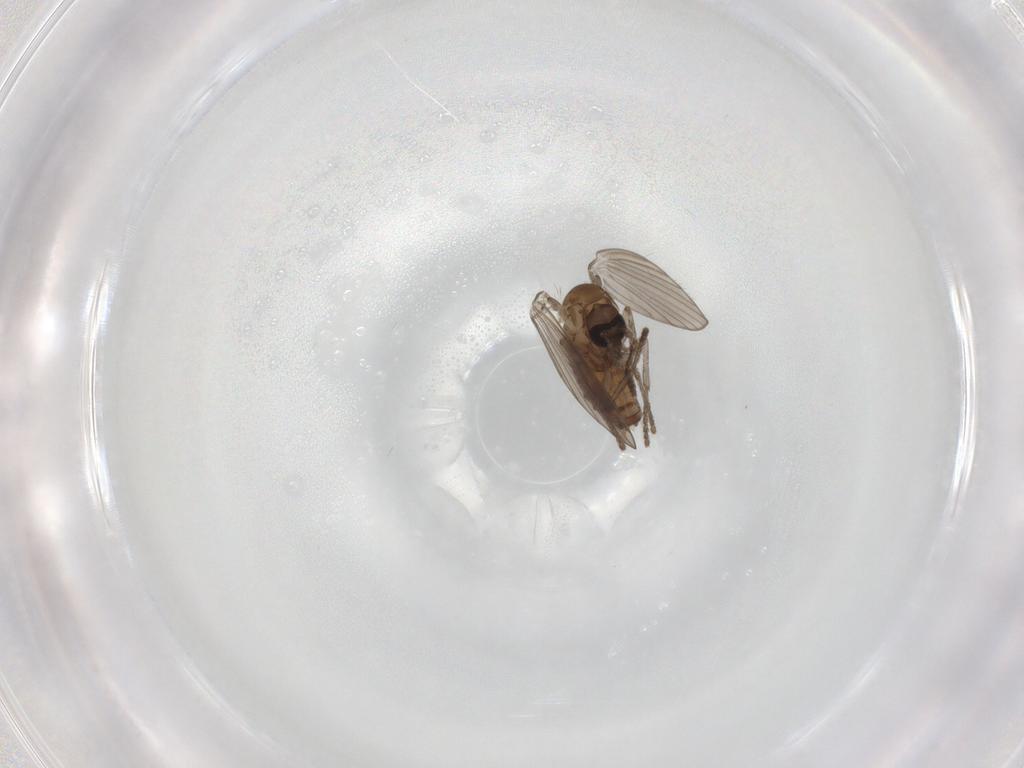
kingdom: Animalia
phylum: Arthropoda
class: Insecta
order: Diptera
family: Psychodidae
